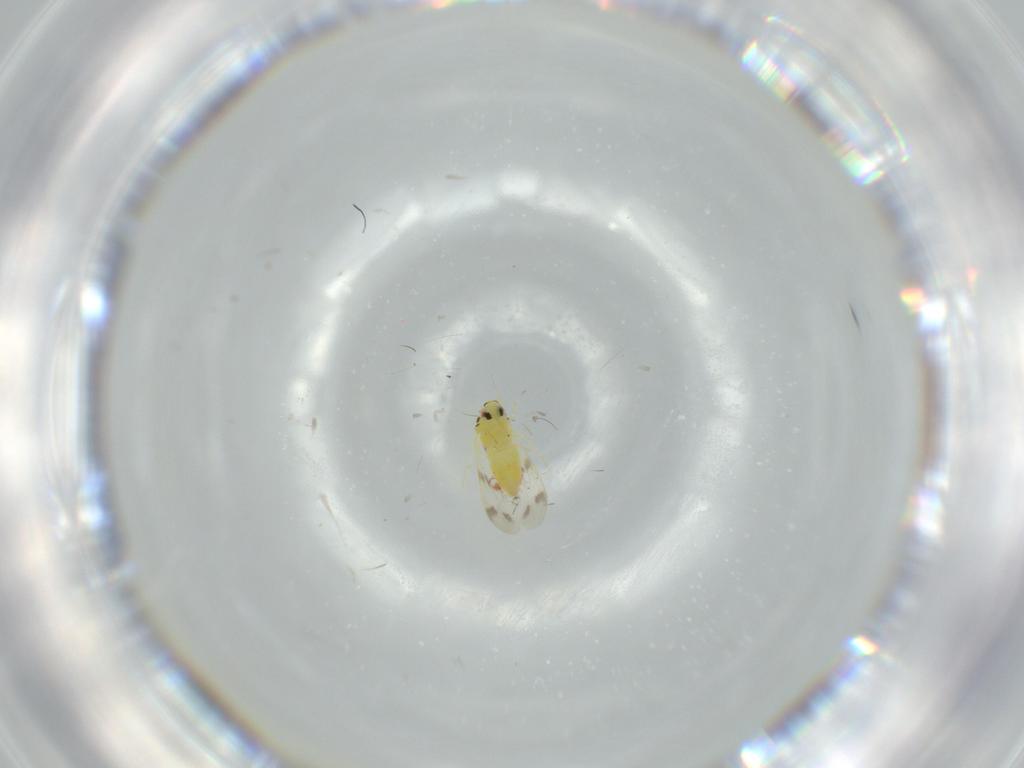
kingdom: Animalia
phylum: Arthropoda
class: Insecta
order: Hemiptera
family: Aleyrodidae
